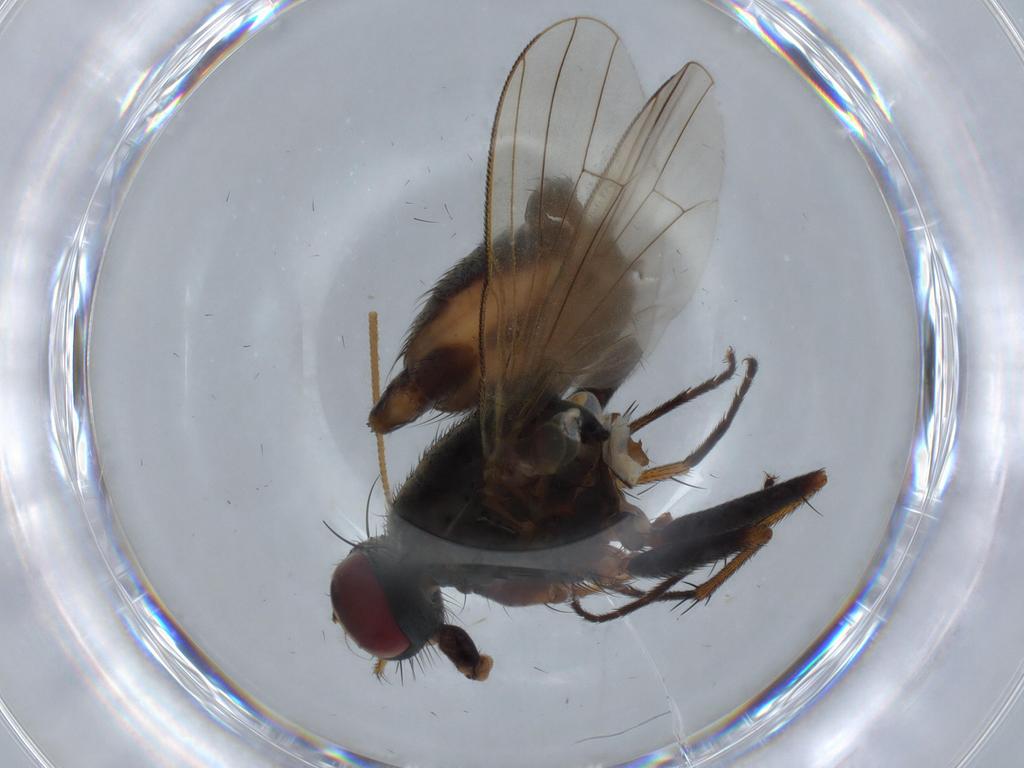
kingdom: Animalia
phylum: Arthropoda
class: Insecta
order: Diptera
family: Muscidae
